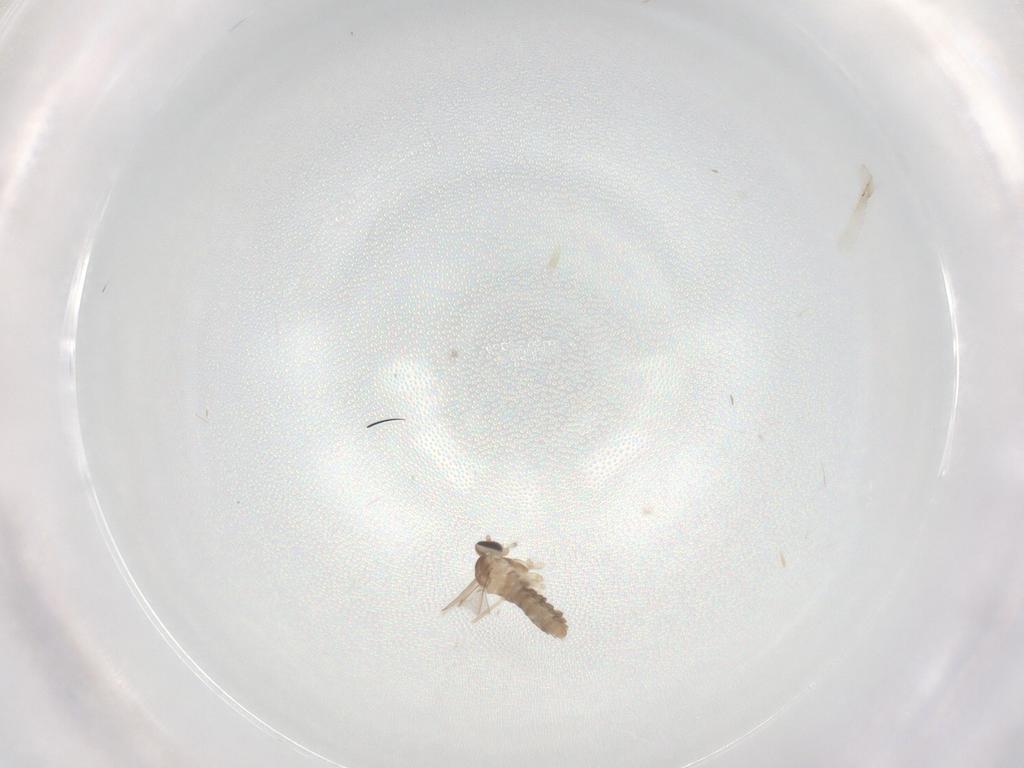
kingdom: Animalia
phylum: Arthropoda
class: Insecta
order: Diptera
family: Cecidomyiidae
